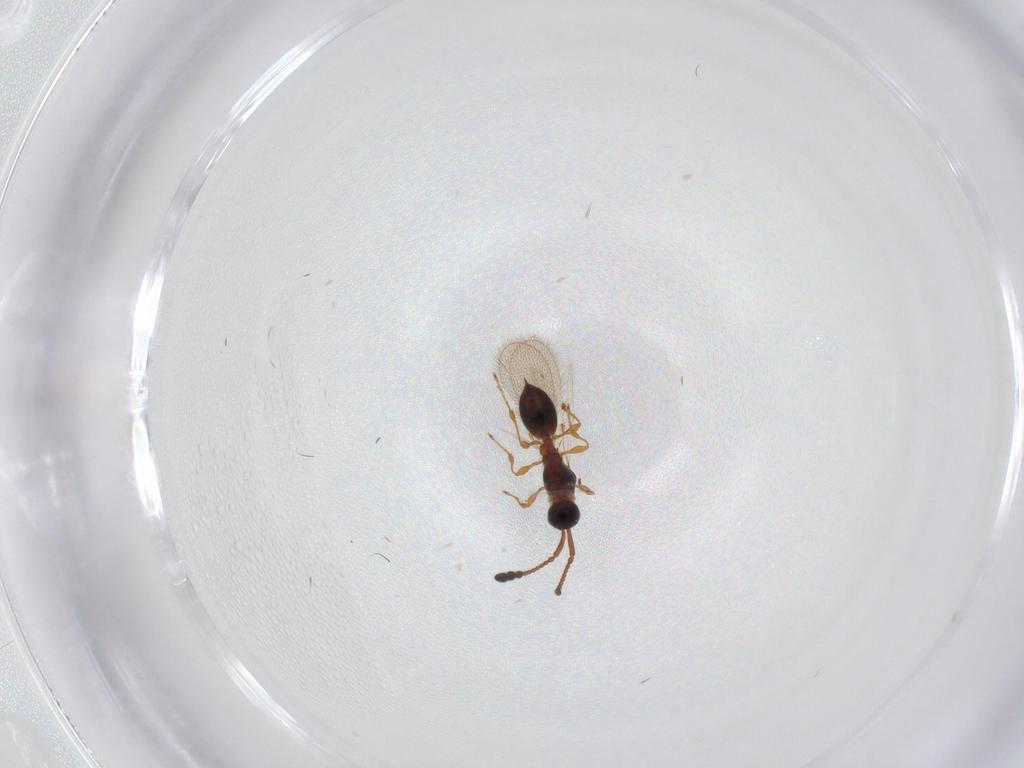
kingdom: Animalia
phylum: Arthropoda
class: Insecta
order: Hymenoptera
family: Diapriidae
